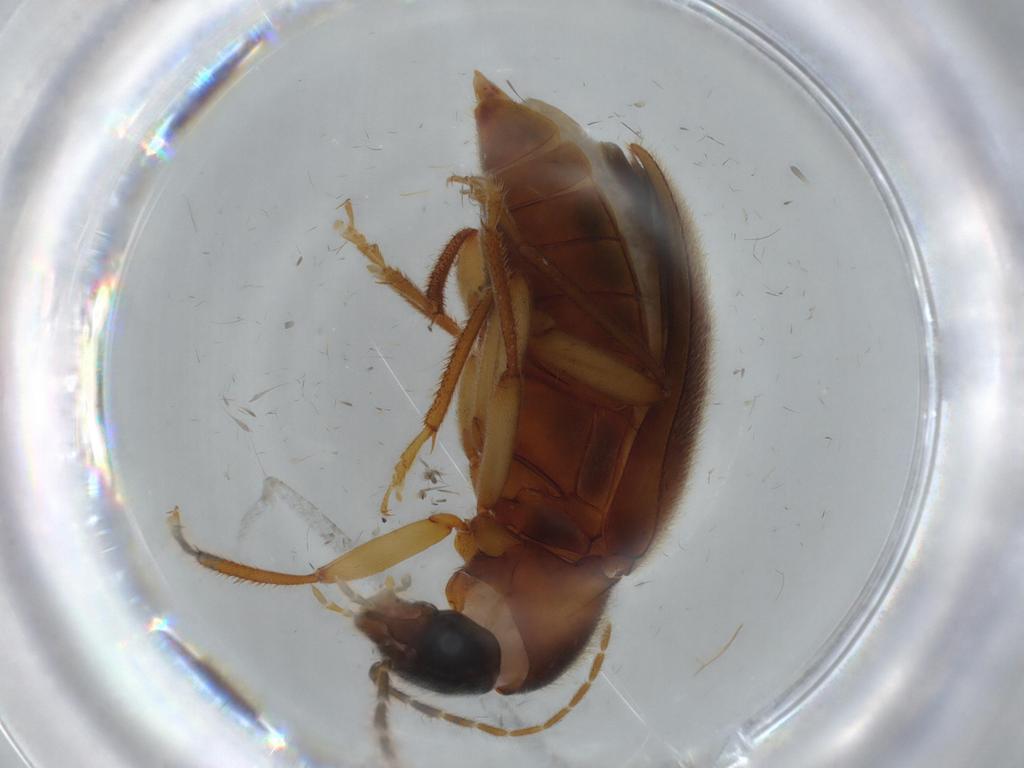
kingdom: Animalia
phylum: Arthropoda
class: Insecta
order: Coleoptera
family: Ptilodactylidae
